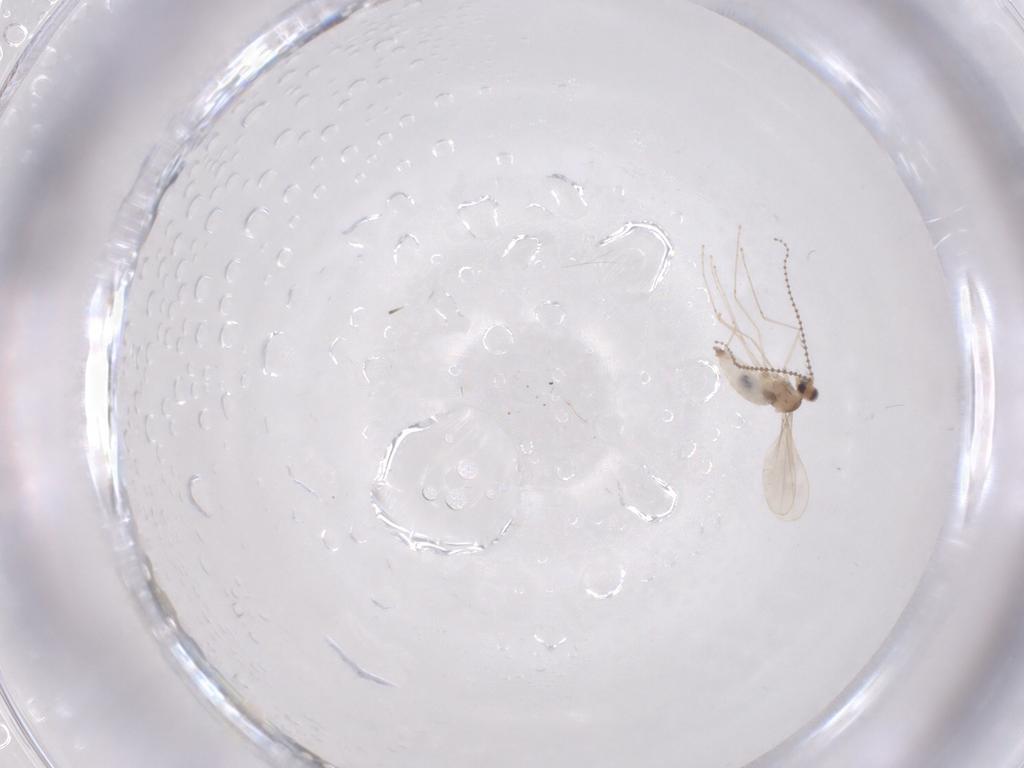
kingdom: Animalia
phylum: Arthropoda
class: Insecta
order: Diptera
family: Cecidomyiidae
